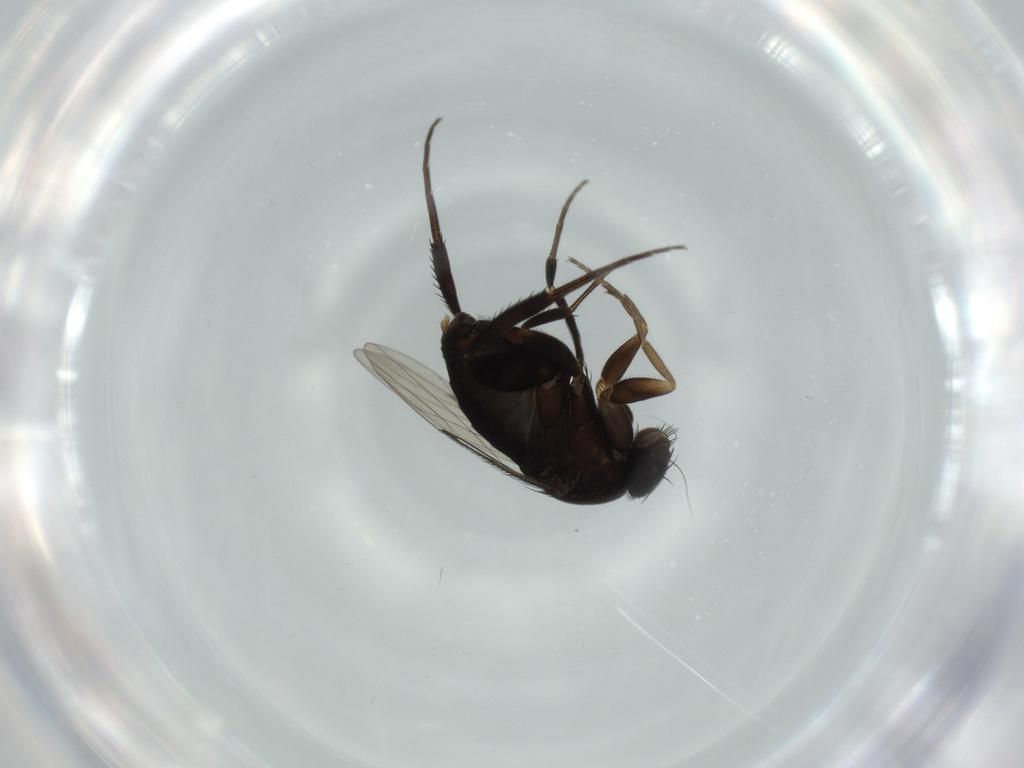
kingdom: Animalia
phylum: Arthropoda
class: Insecta
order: Diptera
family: Phoridae
